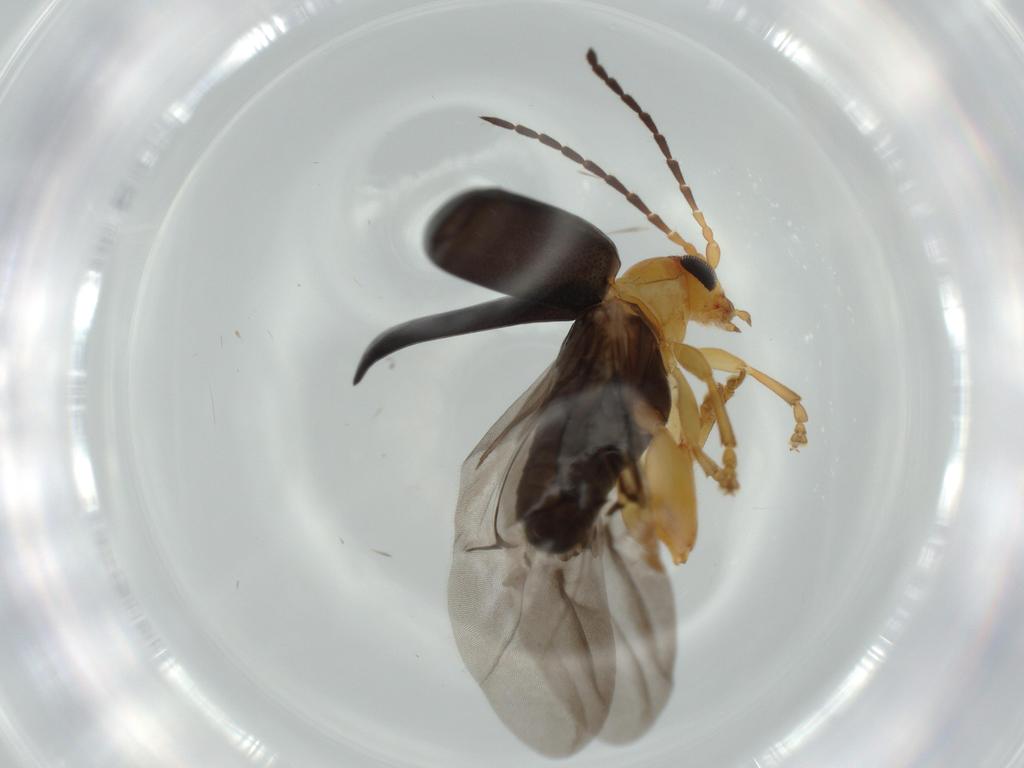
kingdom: Animalia
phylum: Arthropoda
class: Insecta
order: Coleoptera
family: Chrysomelidae
